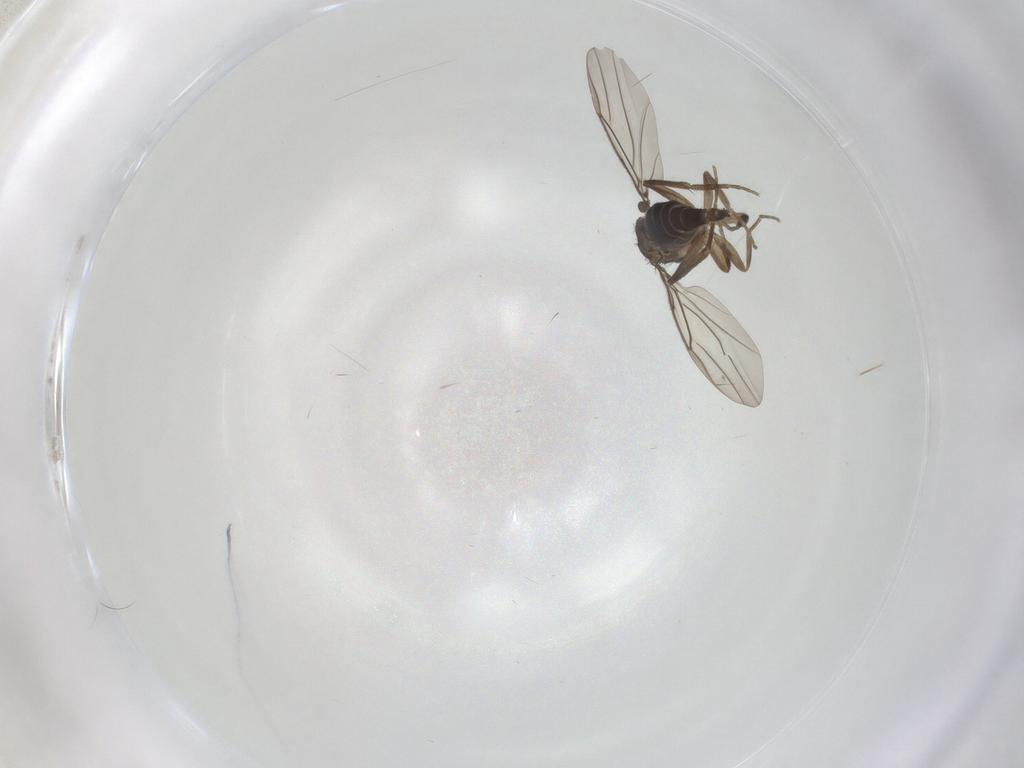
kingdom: Animalia
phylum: Arthropoda
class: Insecta
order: Diptera
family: Phoridae
